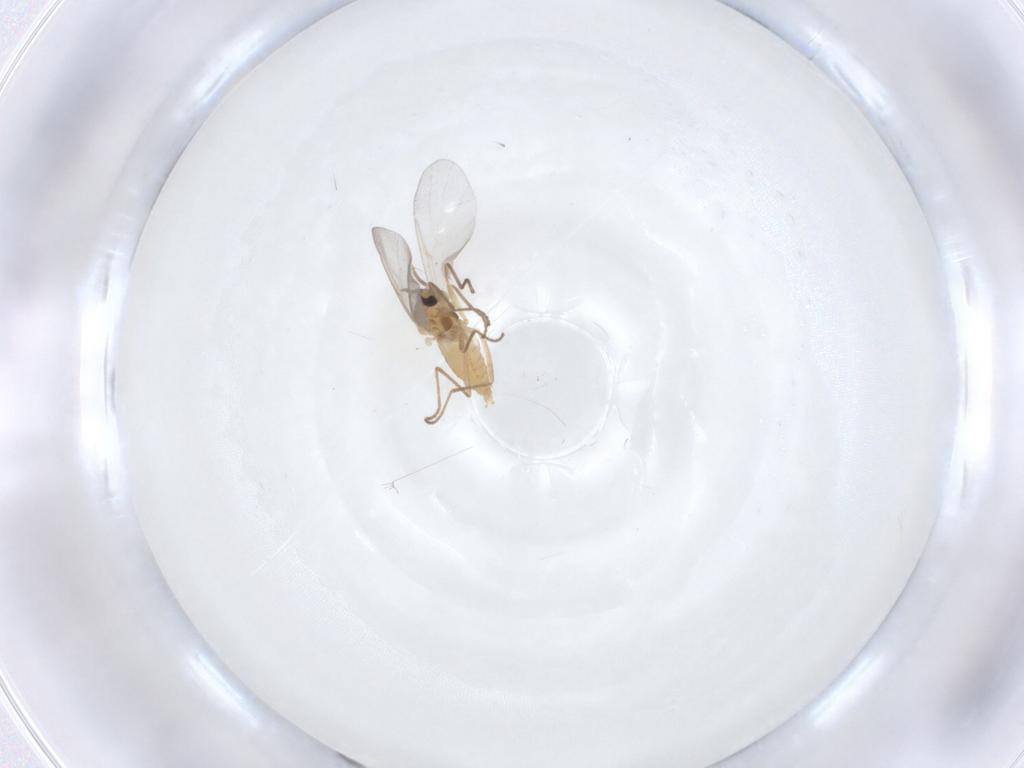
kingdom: Animalia
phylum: Arthropoda
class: Insecta
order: Diptera
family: Cecidomyiidae
